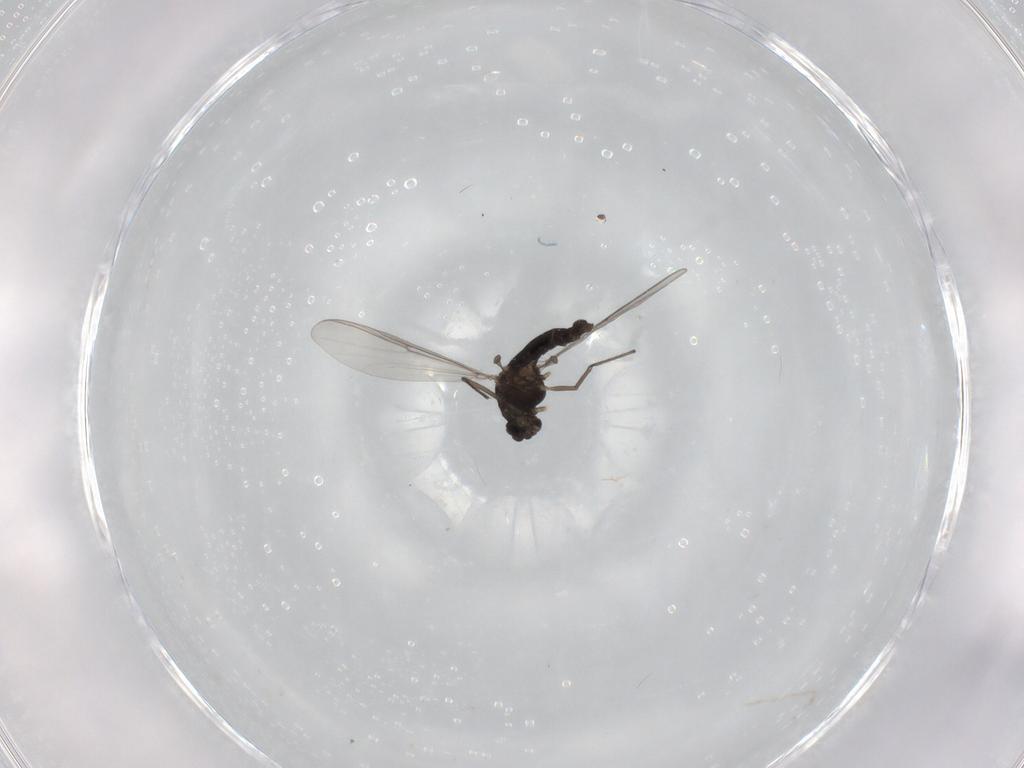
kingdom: Animalia
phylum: Arthropoda
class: Insecta
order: Diptera
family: Chironomidae
